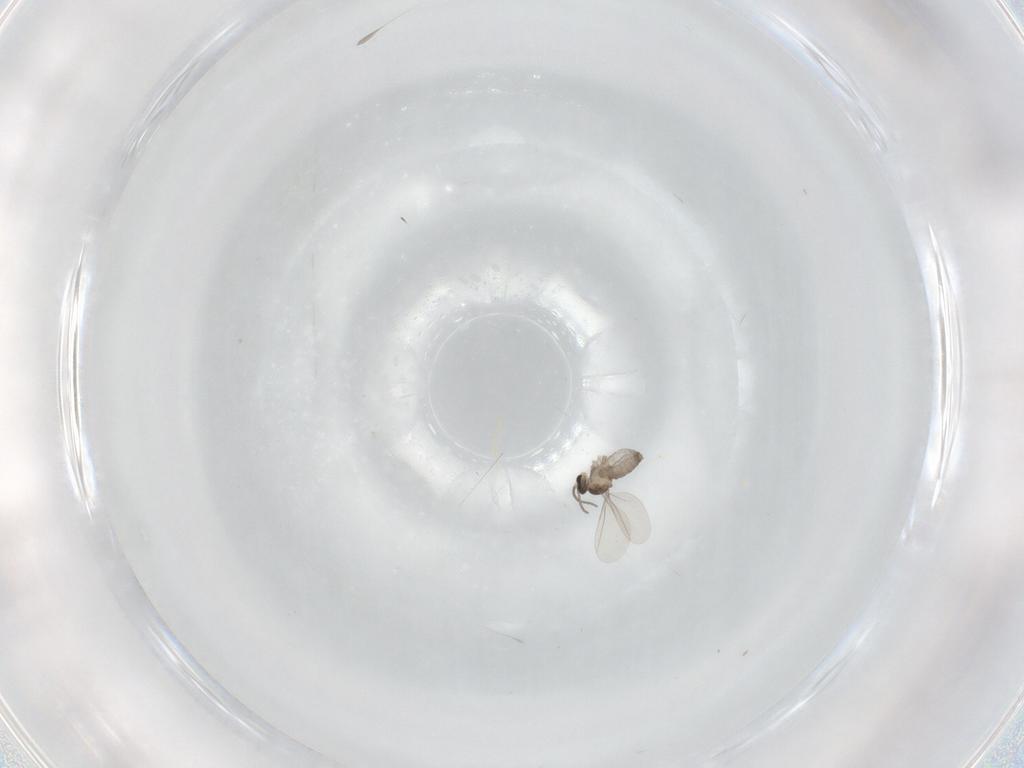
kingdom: Animalia
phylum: Arthropoda
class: Insecta
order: Diptera
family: Cecidomyiidae
